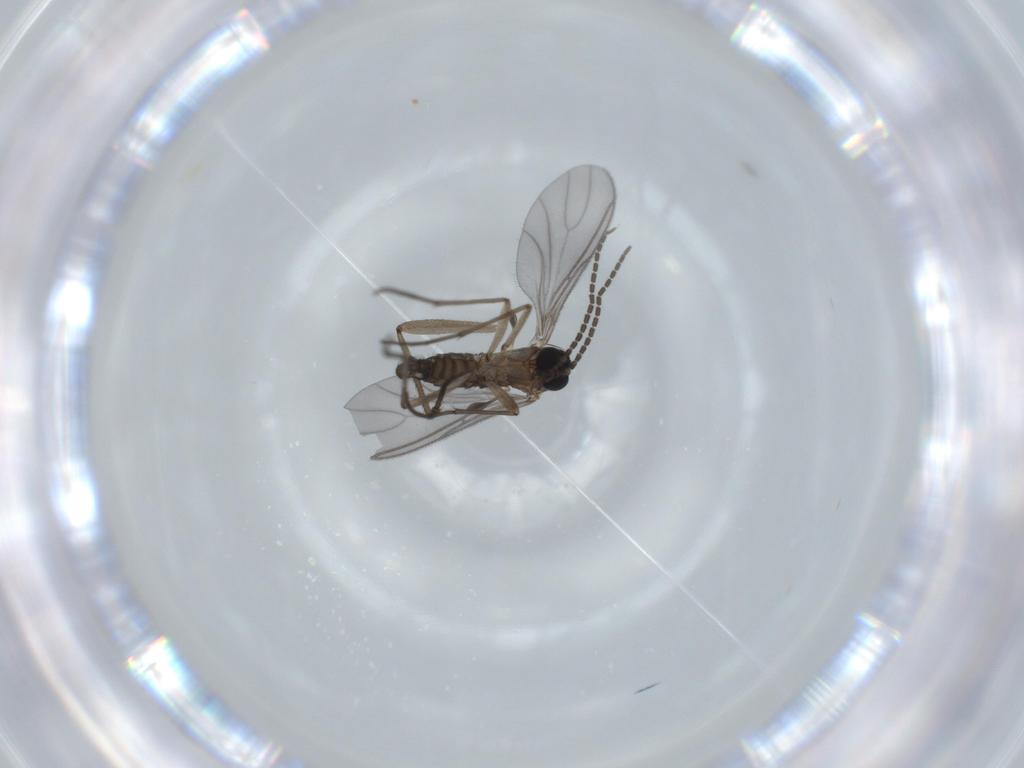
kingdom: Animalia
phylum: Arthropoda
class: Insecta
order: Diptera
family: Sciaridae
